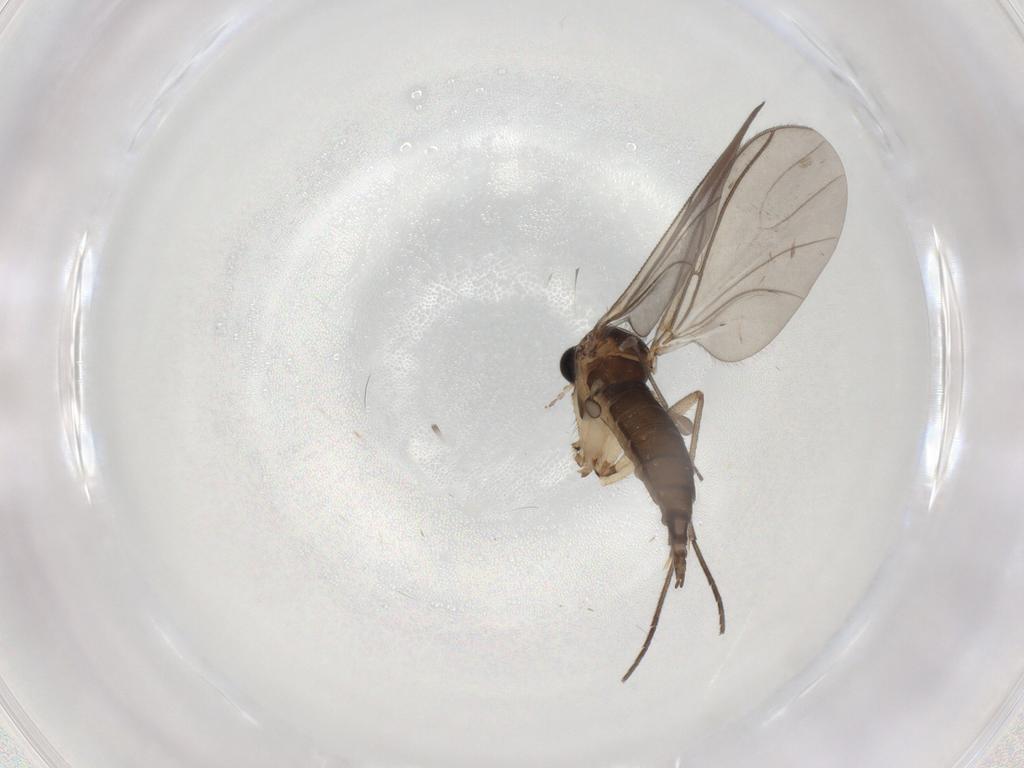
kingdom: Animalia
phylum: Arthropoda
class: Insecta
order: Diptera
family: Sciaridae
